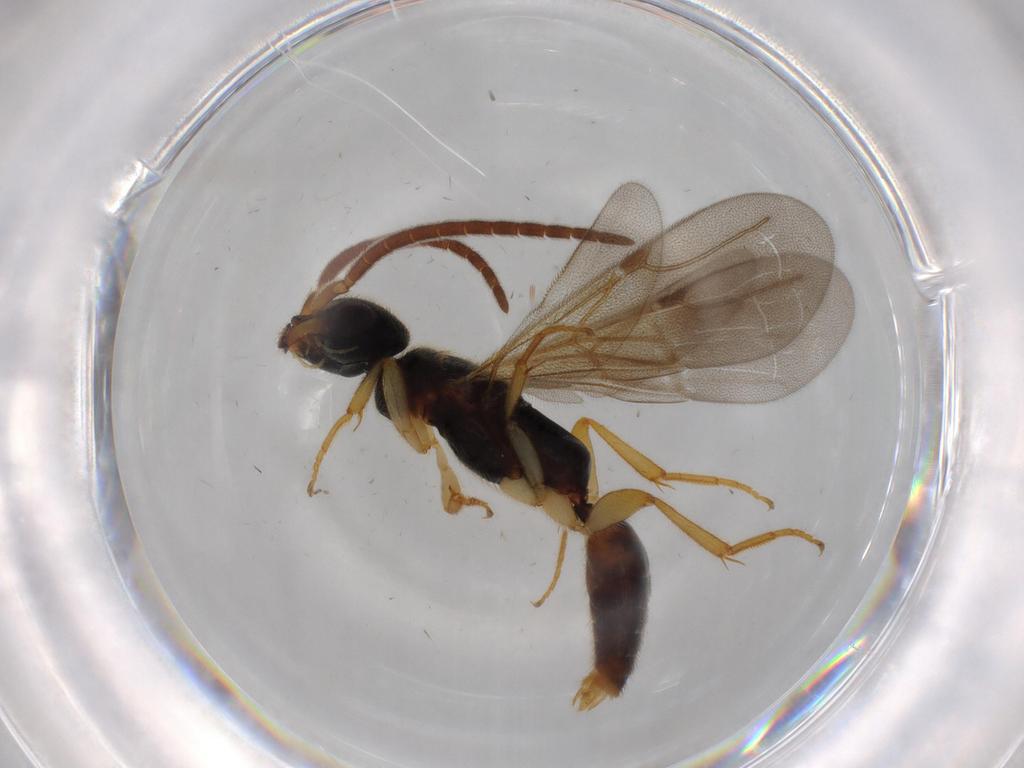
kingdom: Animalia
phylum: Arthropoda
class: Insecta
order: Hymenoptera
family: Bethylidae
